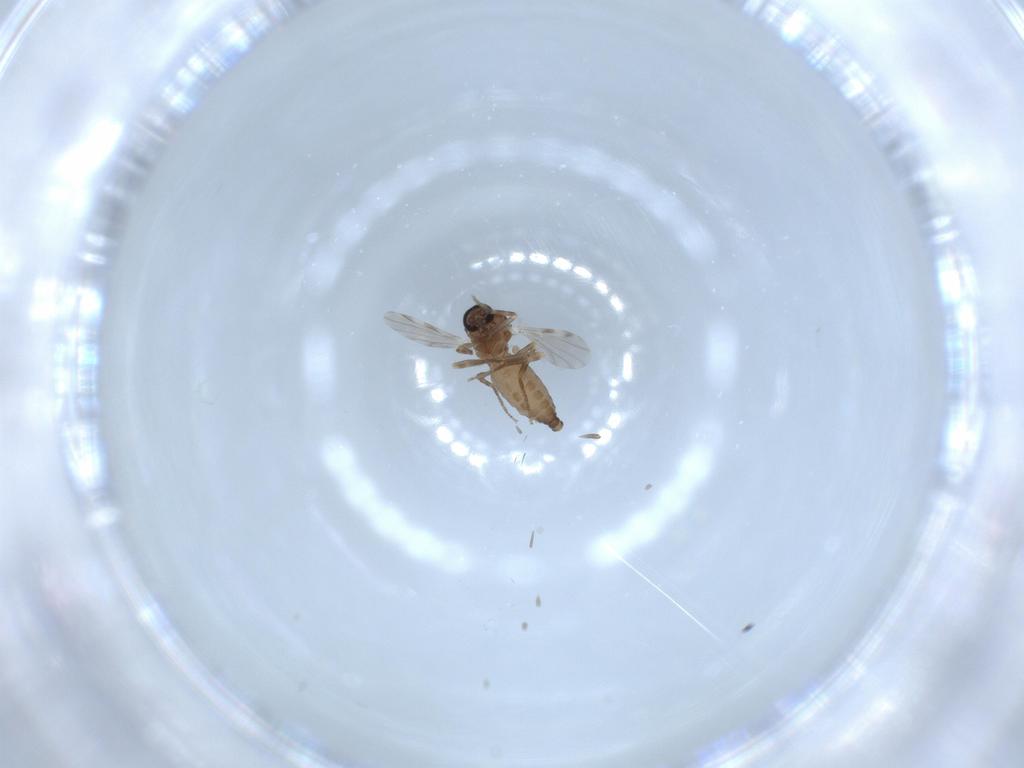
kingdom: Animalia
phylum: Arthropoda
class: Insecta
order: Diptera
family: Ceratopogonidae
